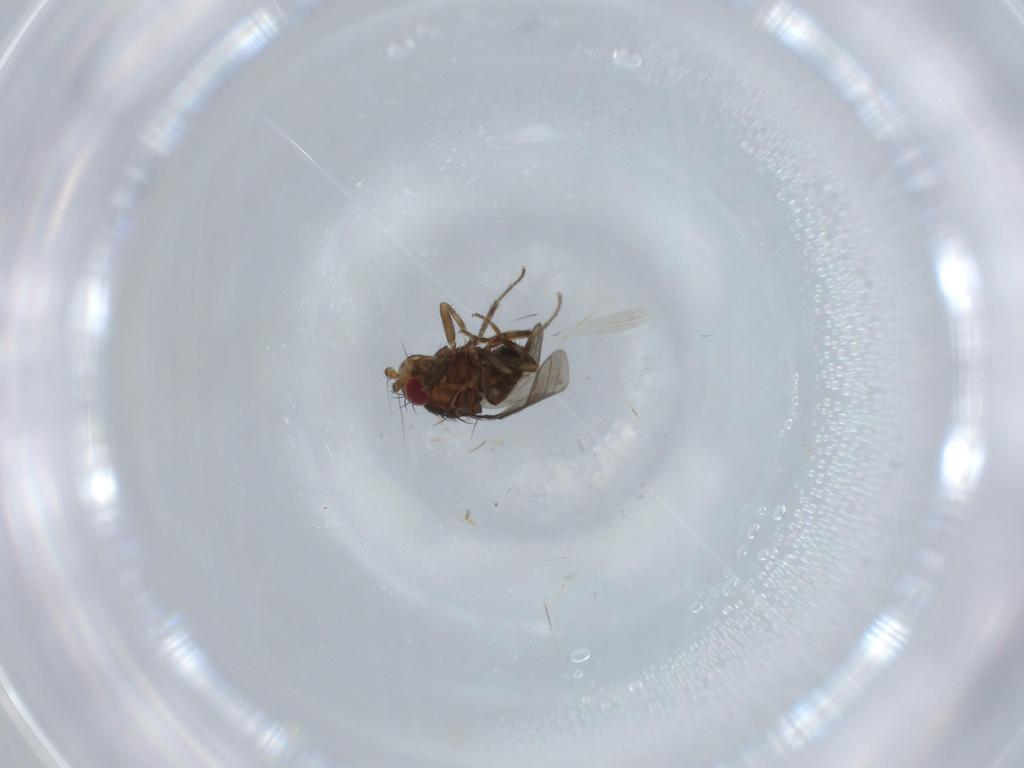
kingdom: Animalia
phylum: Arthropoda
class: Insecta
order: Diptera
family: Sphaeroceridae
